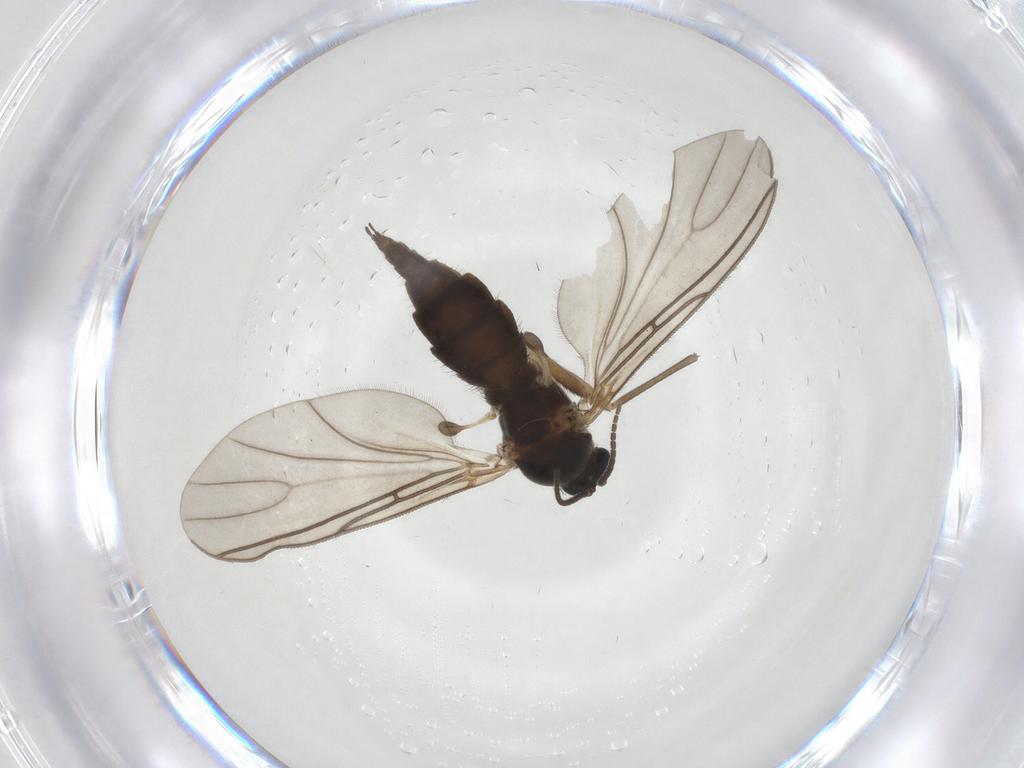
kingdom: Animalia
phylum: Arthropoda
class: Insecta
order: Diptera
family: Sciaridae
